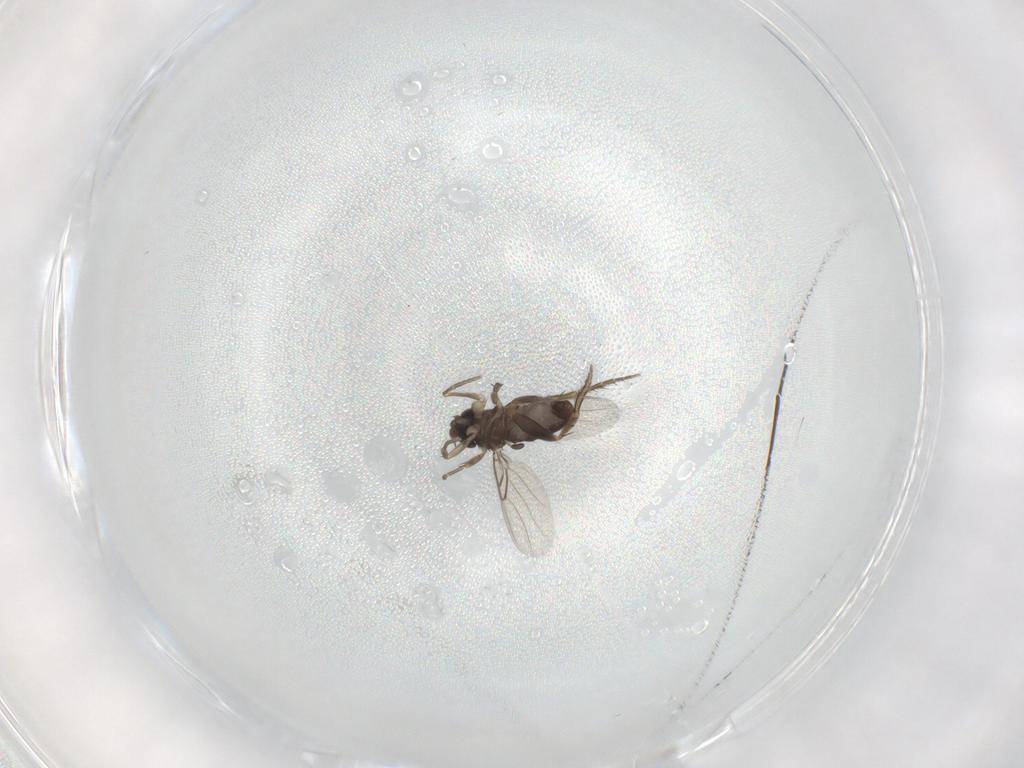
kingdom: Animalia
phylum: Arthropoda
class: Insecta
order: Diptera
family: Phoridae
